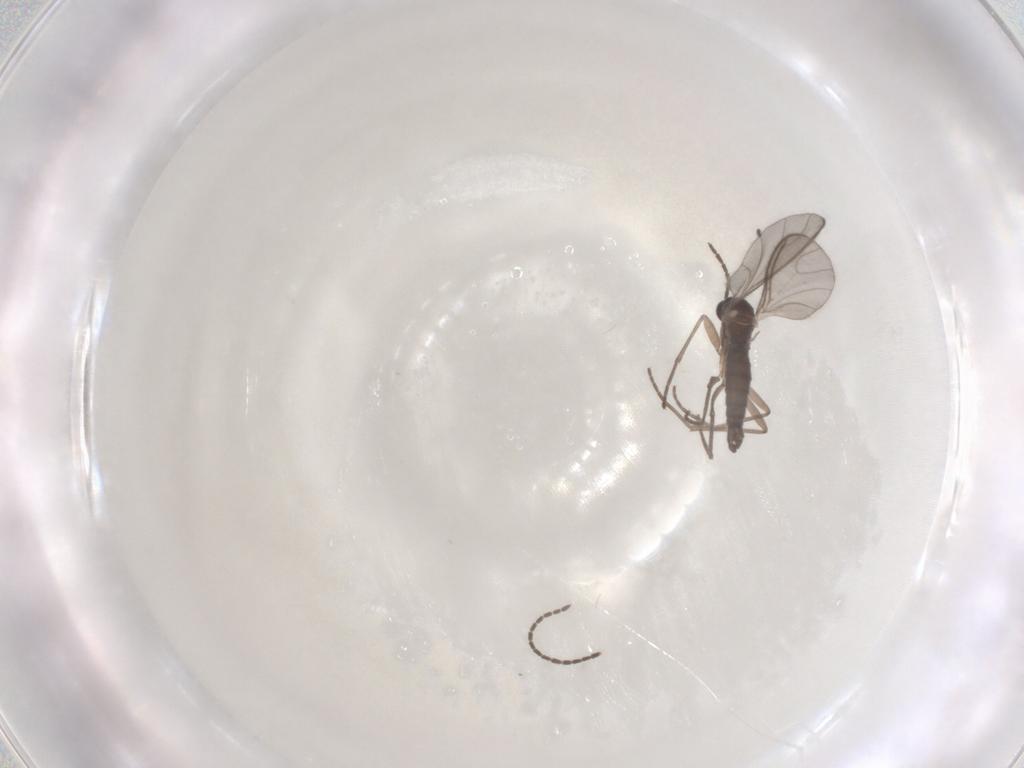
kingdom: Animalia
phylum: Arthropoda
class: Insecta
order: Diptera
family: Sciaridae
